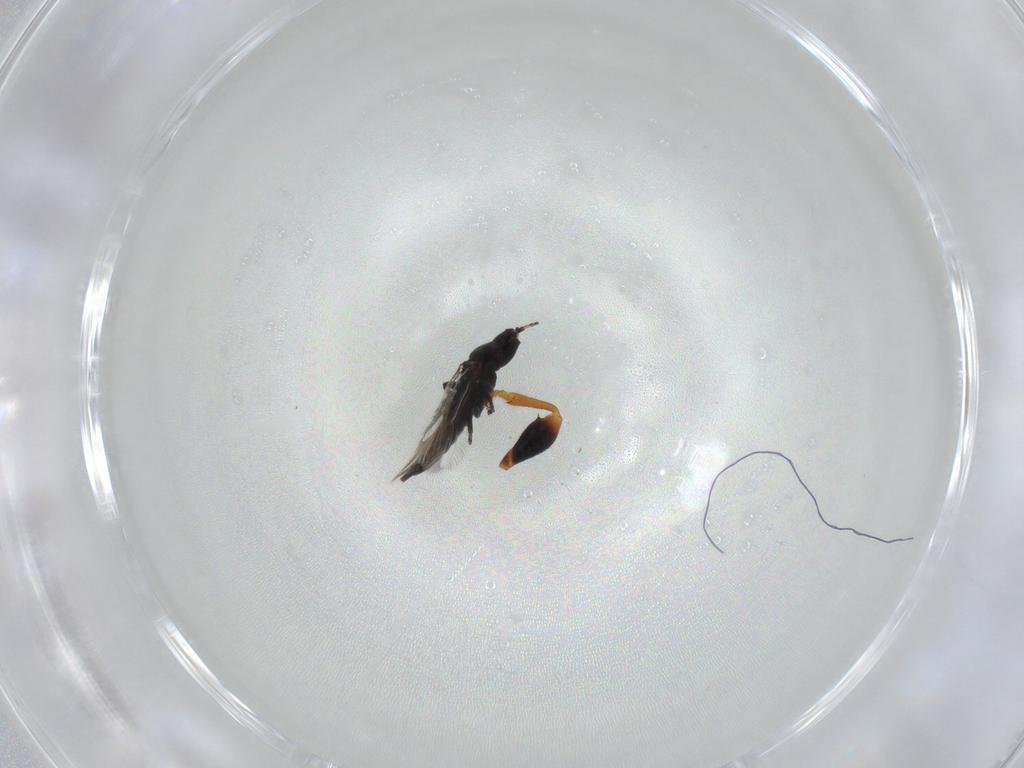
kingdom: Animalia
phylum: Arthropoda
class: Insecta
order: Thysanoptera
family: Phlaeothripidae
